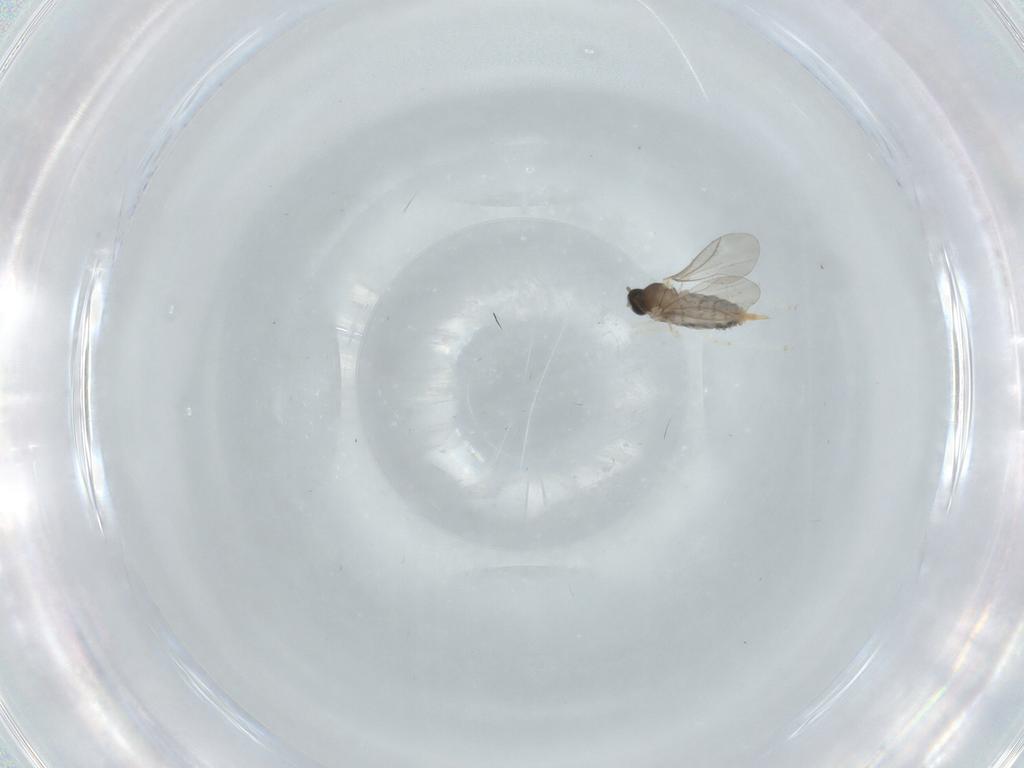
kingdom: Animalia
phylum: Arthropoda
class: Insecta
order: Diptera
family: Cecidomyiidae
